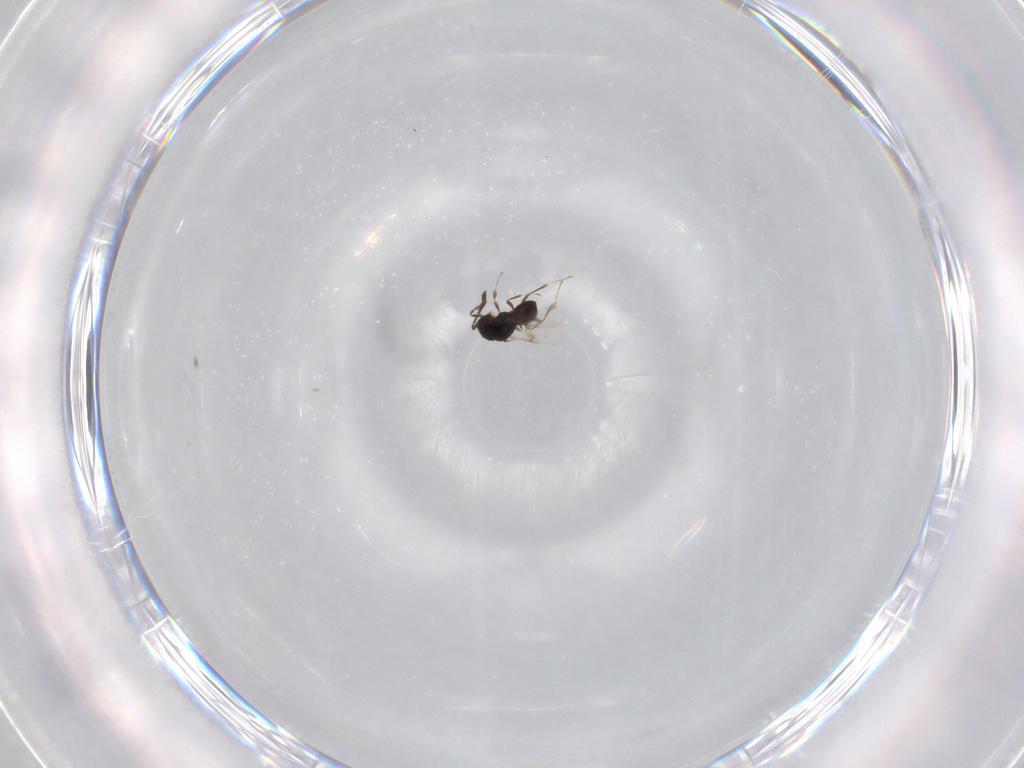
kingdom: Animalia
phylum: Arthropoda
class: Insecta
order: Hymenoptera
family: Scelionidae
